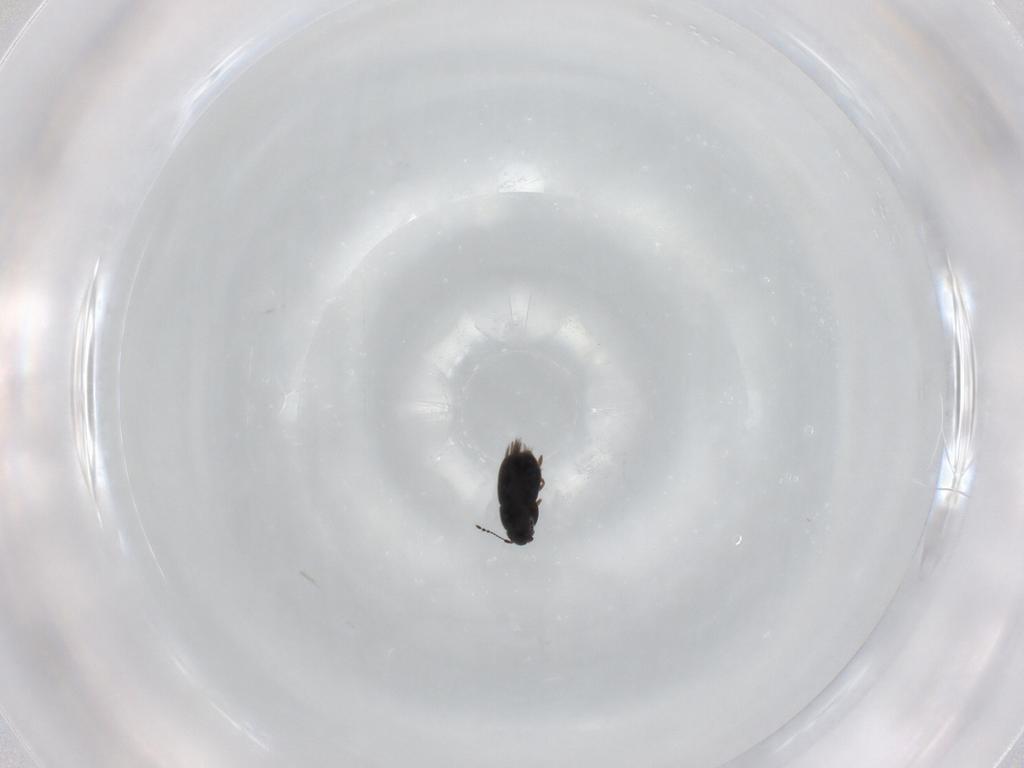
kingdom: Animalia
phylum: Arthropoda
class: Insecta
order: Coleoptera
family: Ptiliidae
